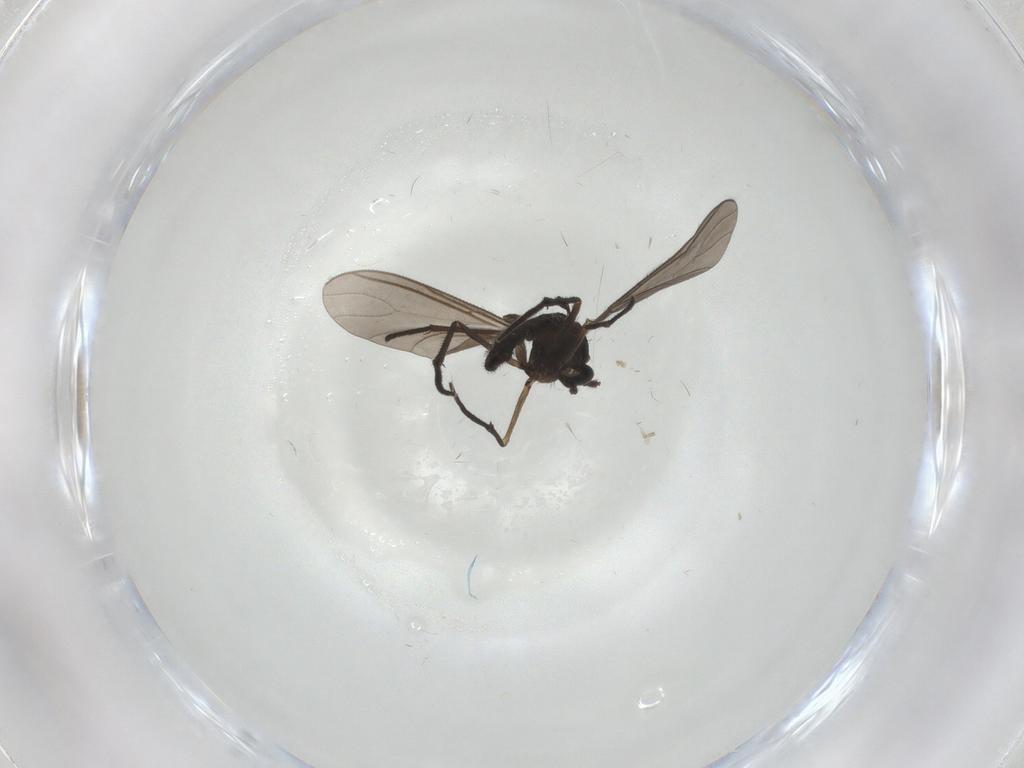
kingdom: Animalia
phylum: Arthropoda
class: Insecta
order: Diptera
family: Sciaridae
